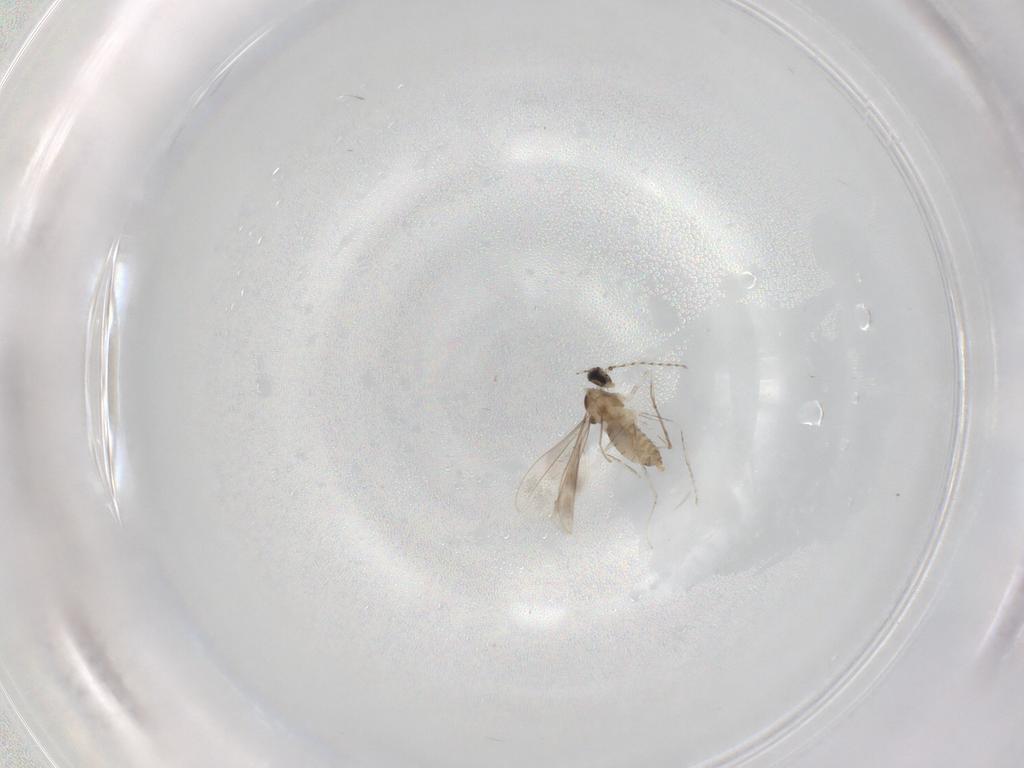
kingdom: Animalia
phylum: Arthropoda
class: Insecta
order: Diptera
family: Cecidomyiidae
